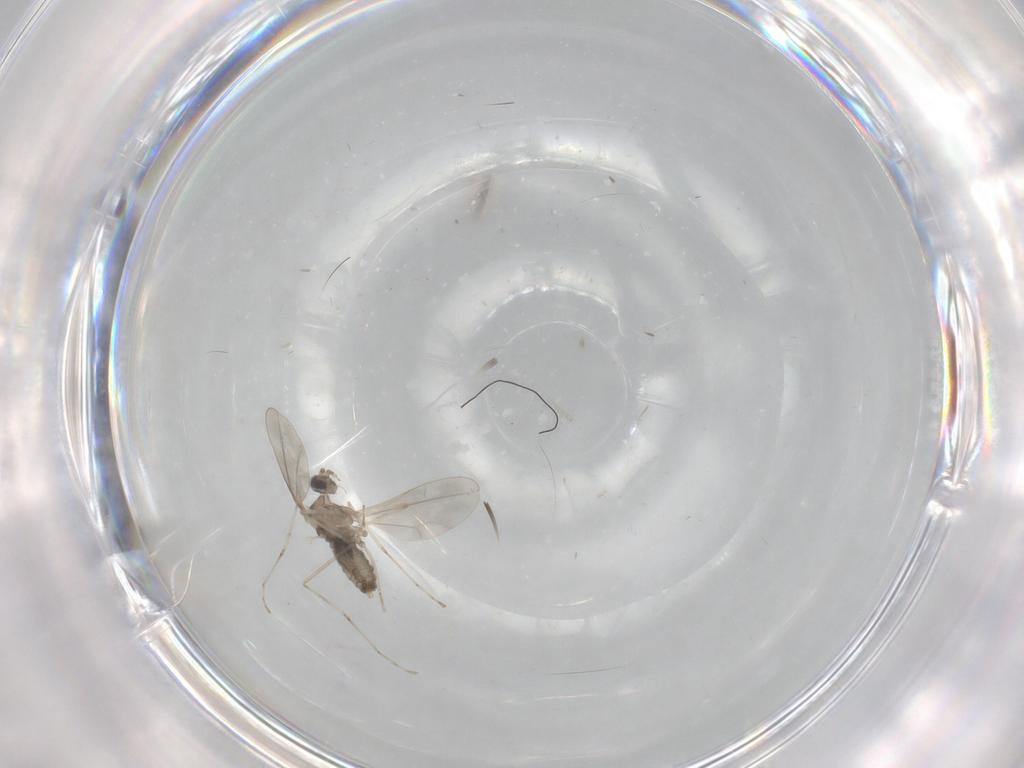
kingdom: Animalia
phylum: Arthropoda
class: Insecta
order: Diptera
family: Cecidomyiidae
